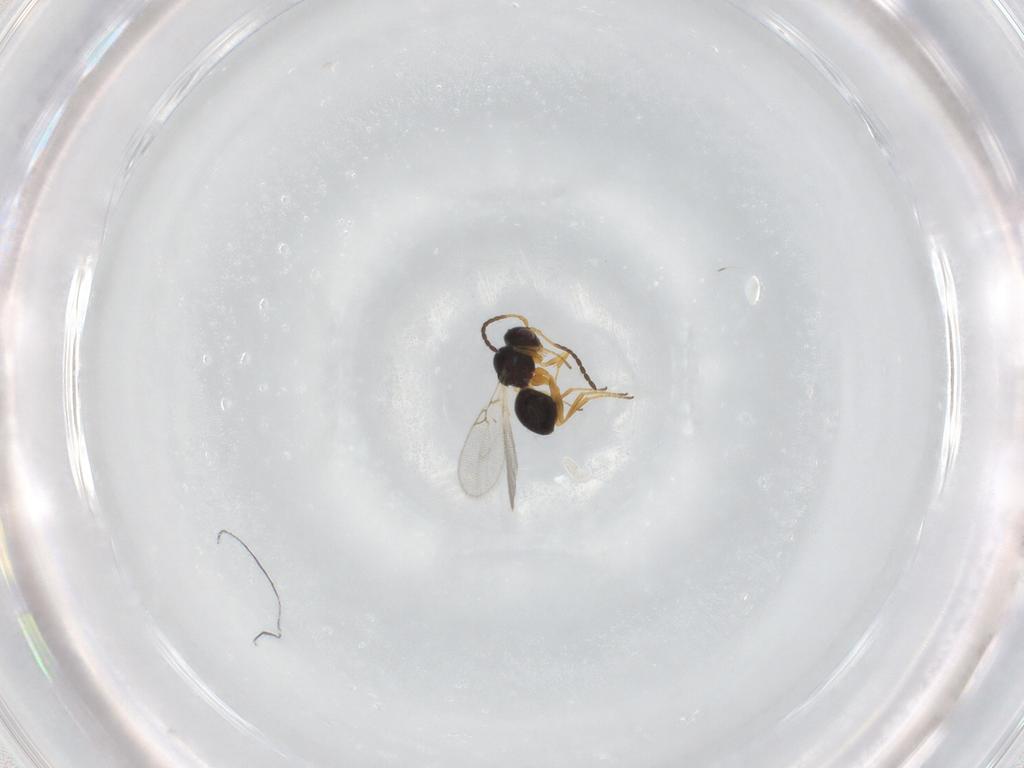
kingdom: Animalia
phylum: Arthropoda
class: Insecta
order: Hymenoptera
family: Figitidae
